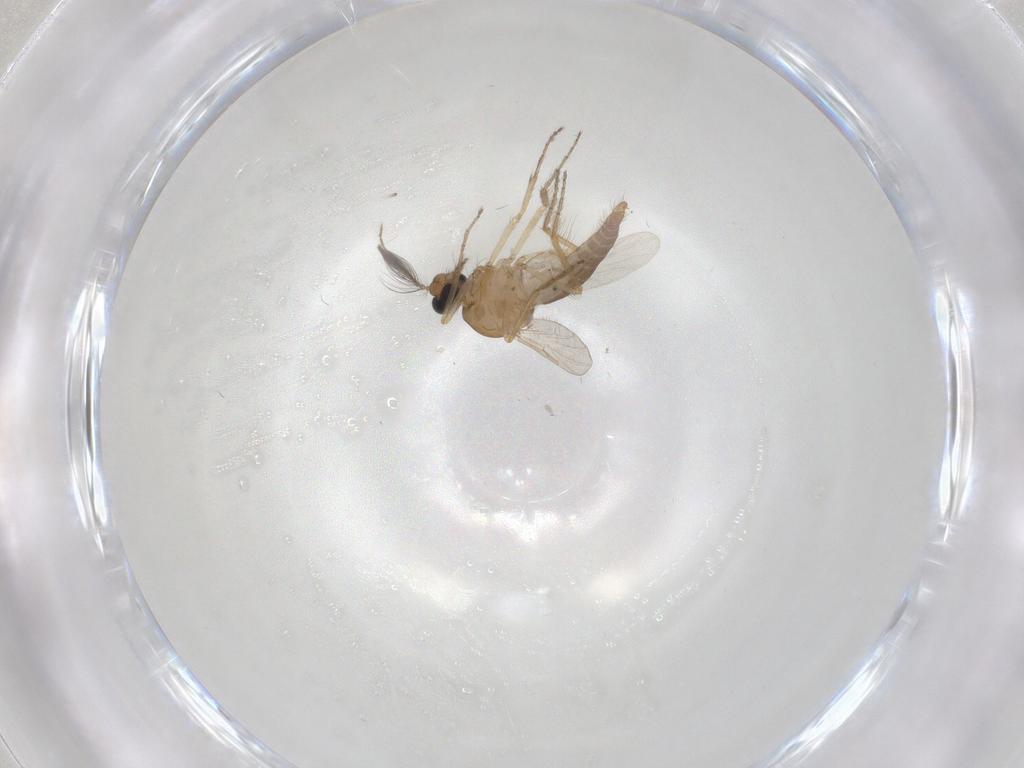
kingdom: Animalia
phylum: Arthropoda
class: Insecta
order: Diptera
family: Ceratopogonidae
